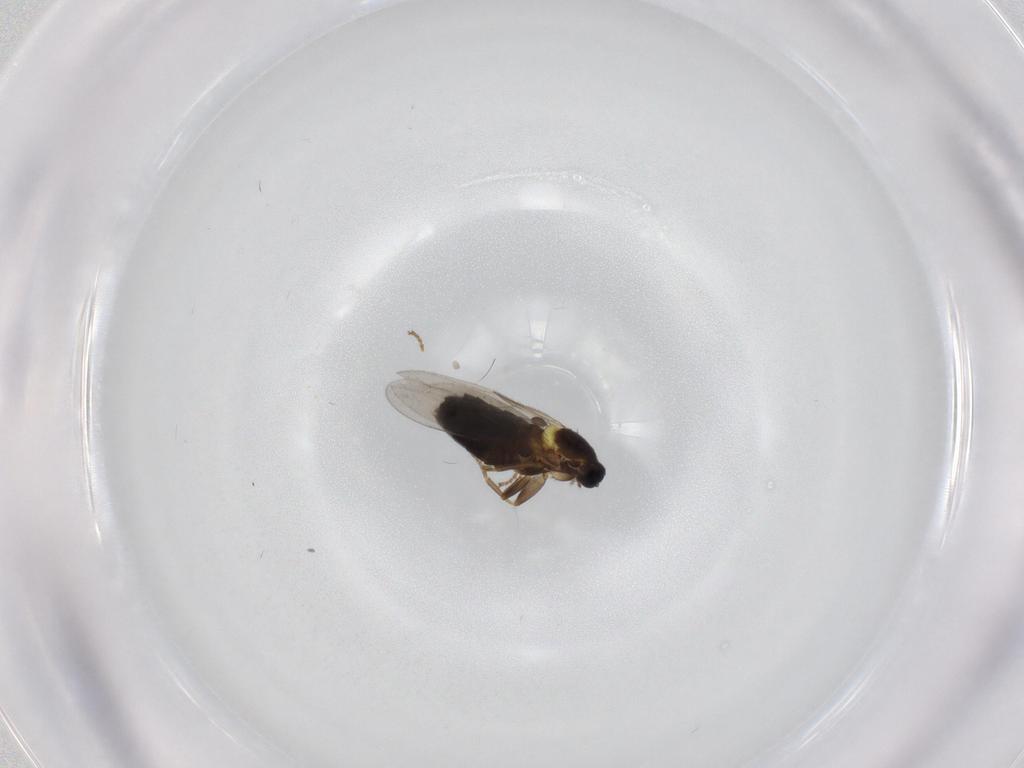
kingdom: Animalia
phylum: Arthropoda
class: Insecta
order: Diptera
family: Scatopsidae
